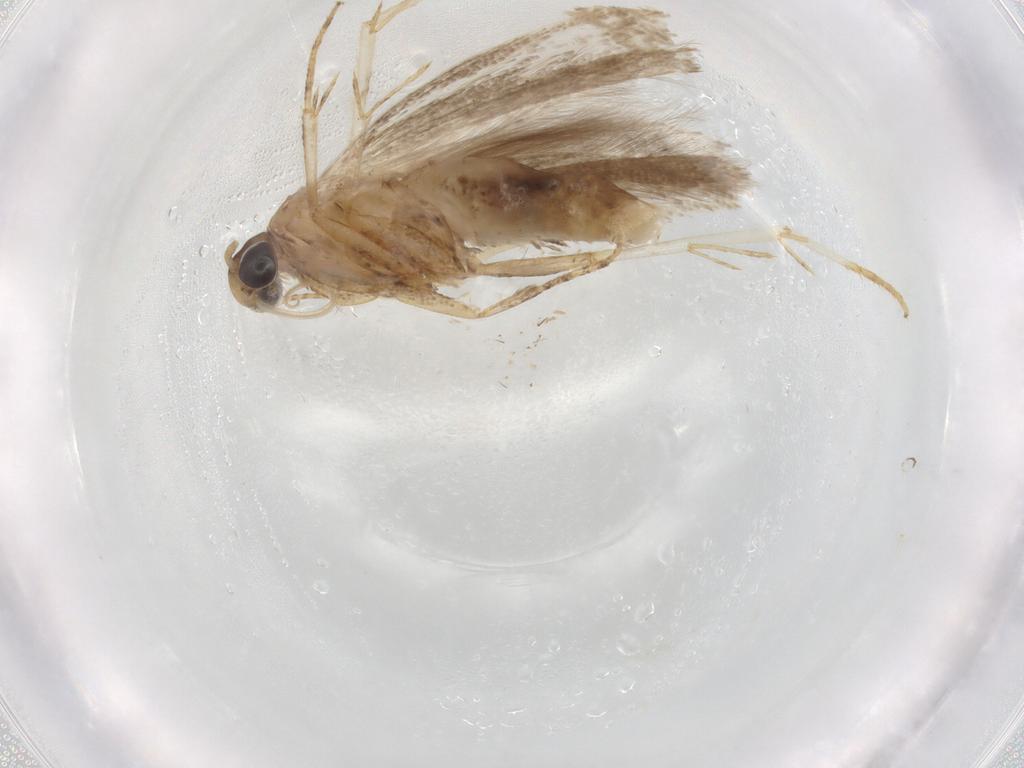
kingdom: Animalia
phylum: Arthropoda
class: Insecta
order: Lepidoptera
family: Gelechiidae
